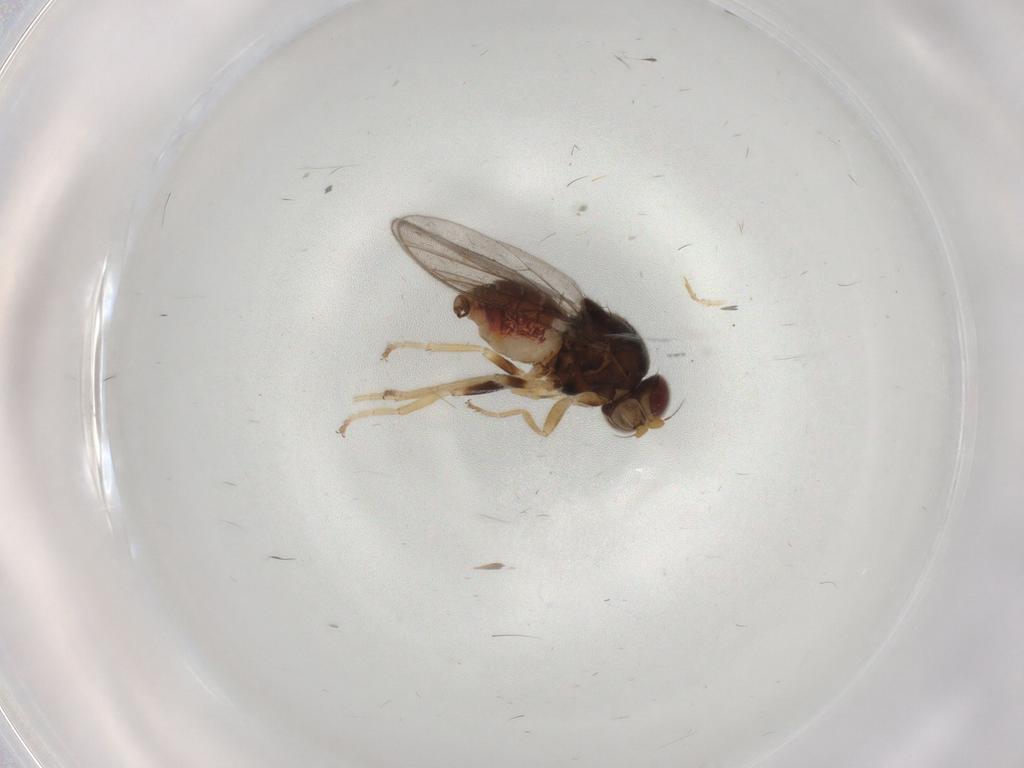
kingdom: Animalia
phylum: Arthropoda
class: Insecta
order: Diptera
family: Chloropidae
